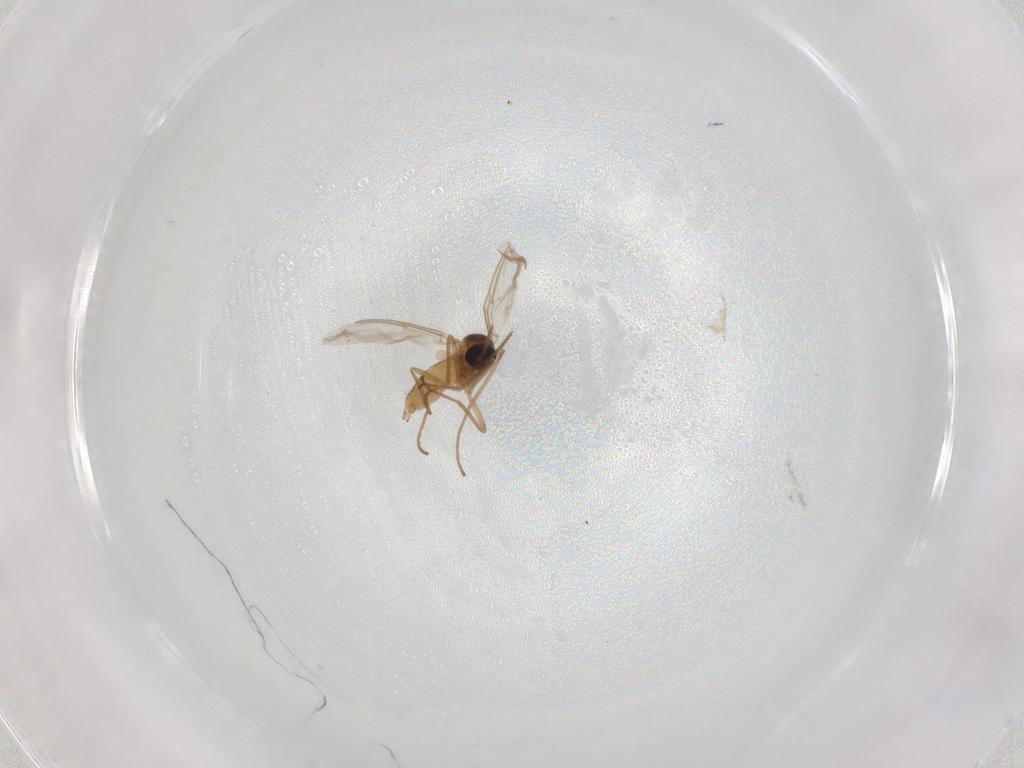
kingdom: Animalia
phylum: Arthropoda
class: Insecta
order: Diptera
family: Cecidomyiidae
